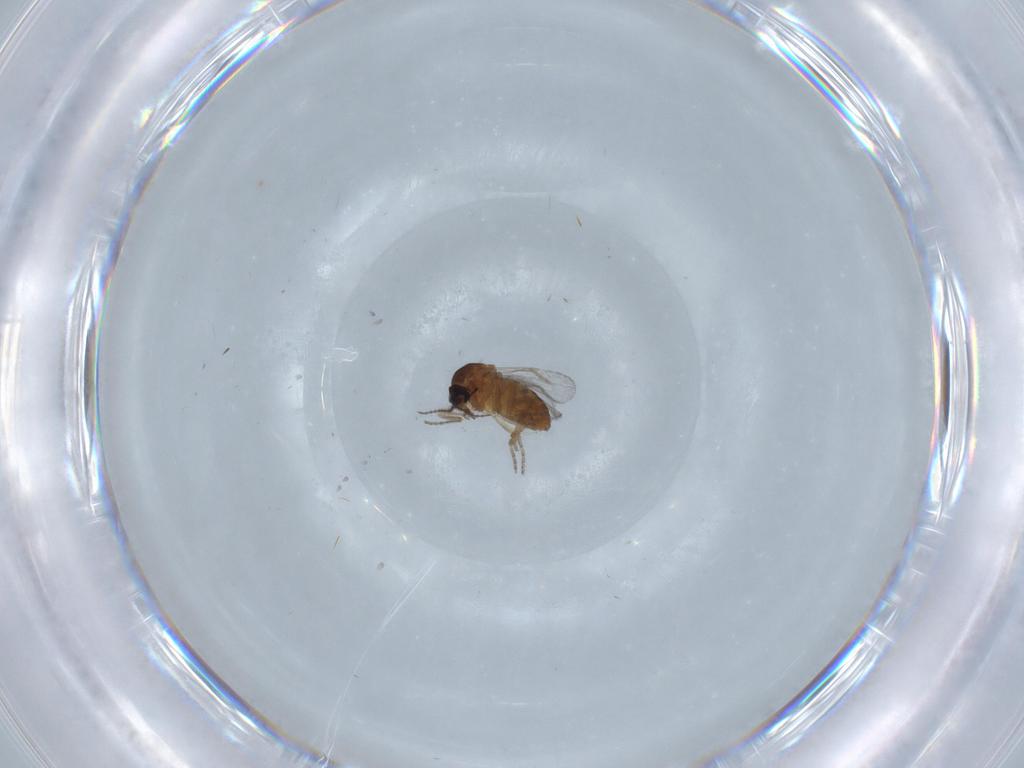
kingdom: Animalia
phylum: Arthropoda
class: Insecta
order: Diptera
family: Ceratopogonidae
